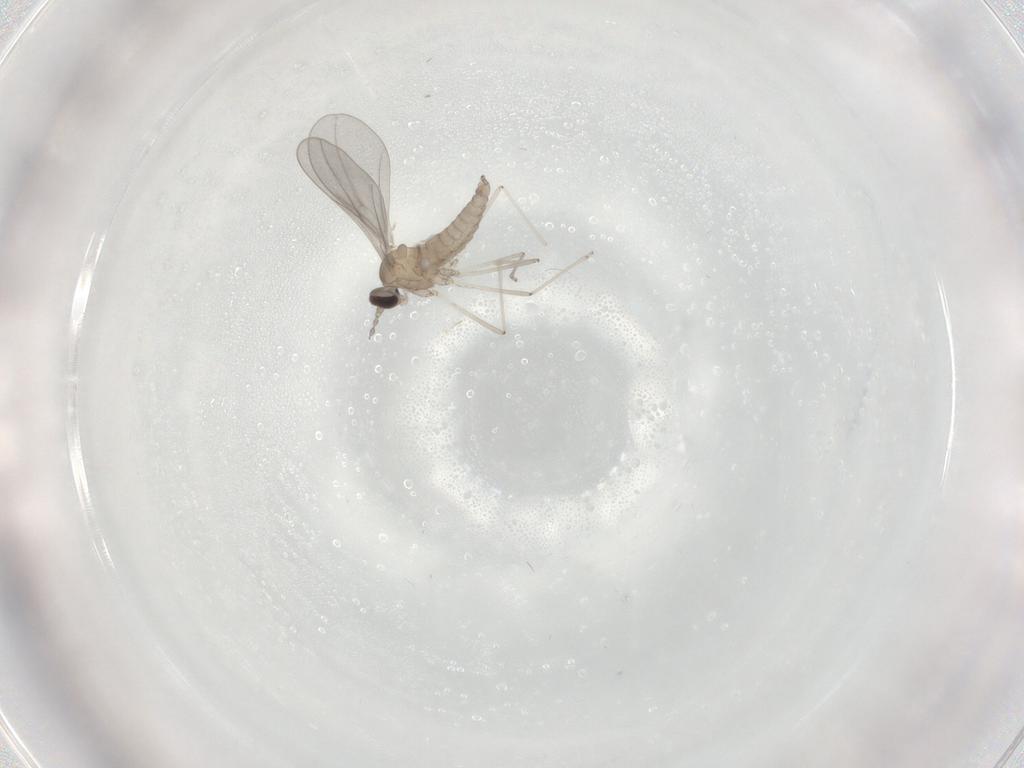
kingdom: Animalia
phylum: Arthropoda
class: Insecta
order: Diptera
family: Cecidomyiidae
